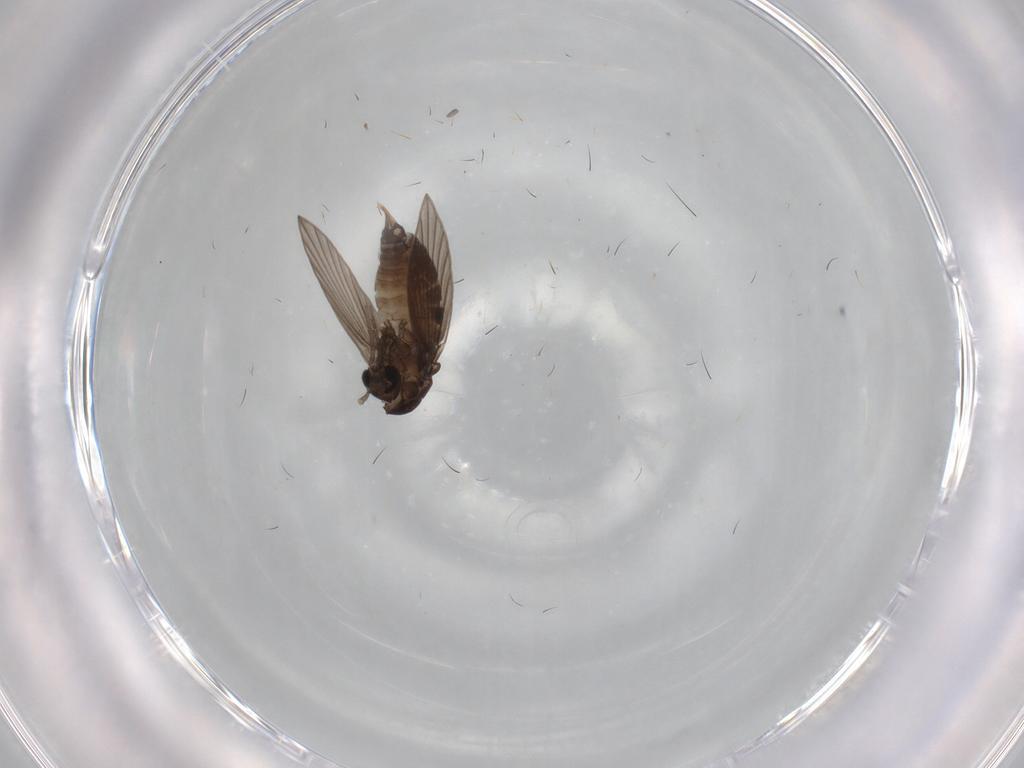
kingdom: Animalia
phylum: Arthropoda
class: Insecta
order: Diptera
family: Psychodidae
